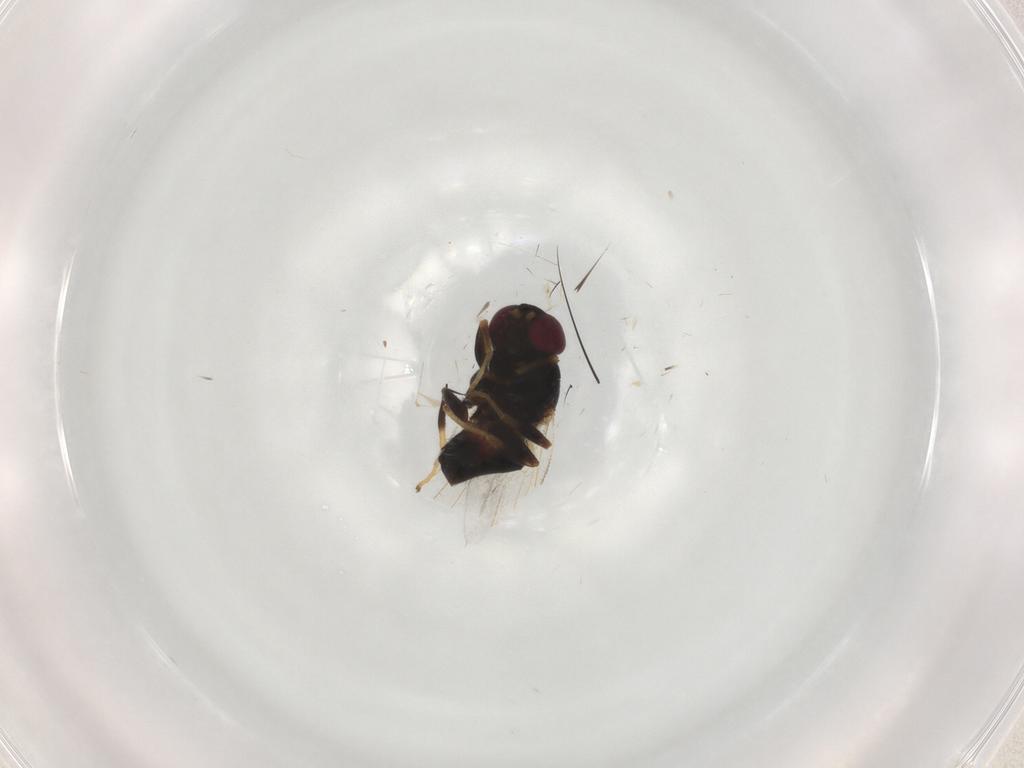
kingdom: Animalia
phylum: Arthropoda
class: Insecta
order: Diptera
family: Chloropidae
